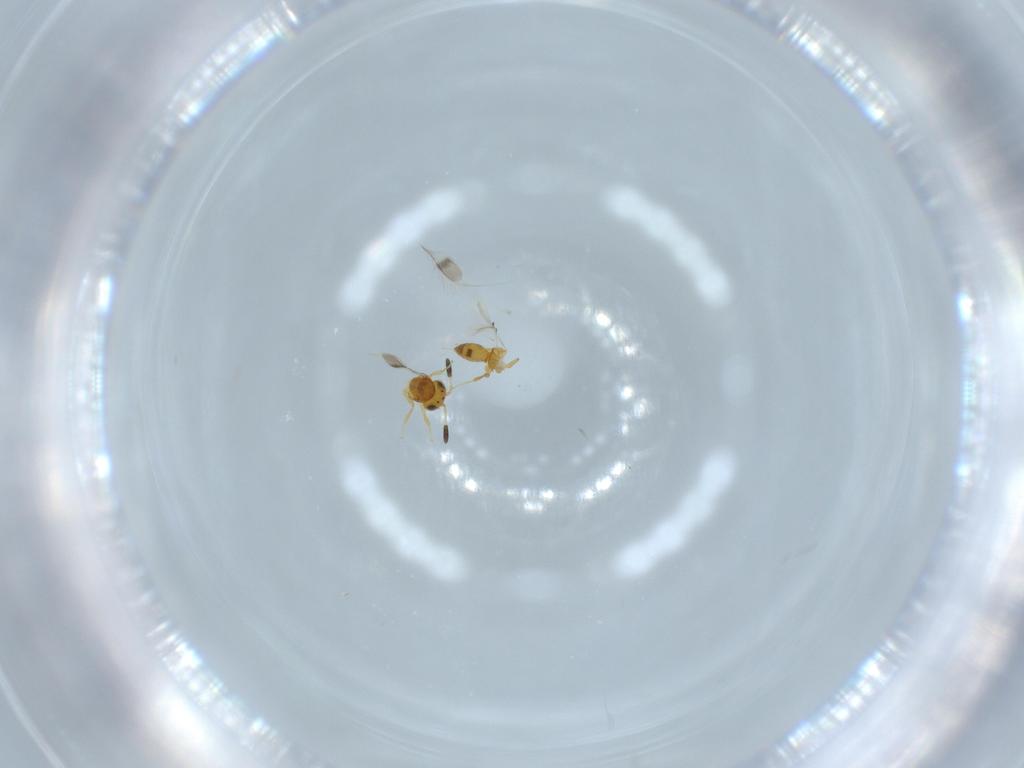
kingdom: Animalia
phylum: Arthropoda
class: Insecta
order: Hymenoptera
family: Scelionidae
